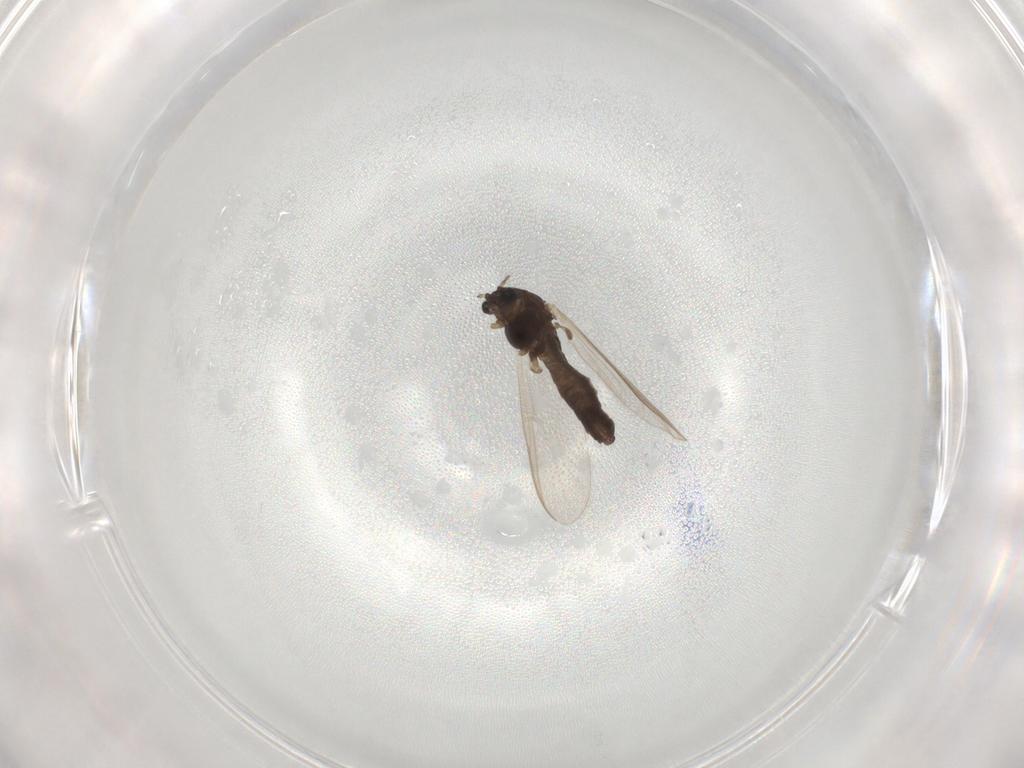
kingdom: Animalia
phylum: Arthropoda
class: Insecta
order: Diptera
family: Chironomidae
